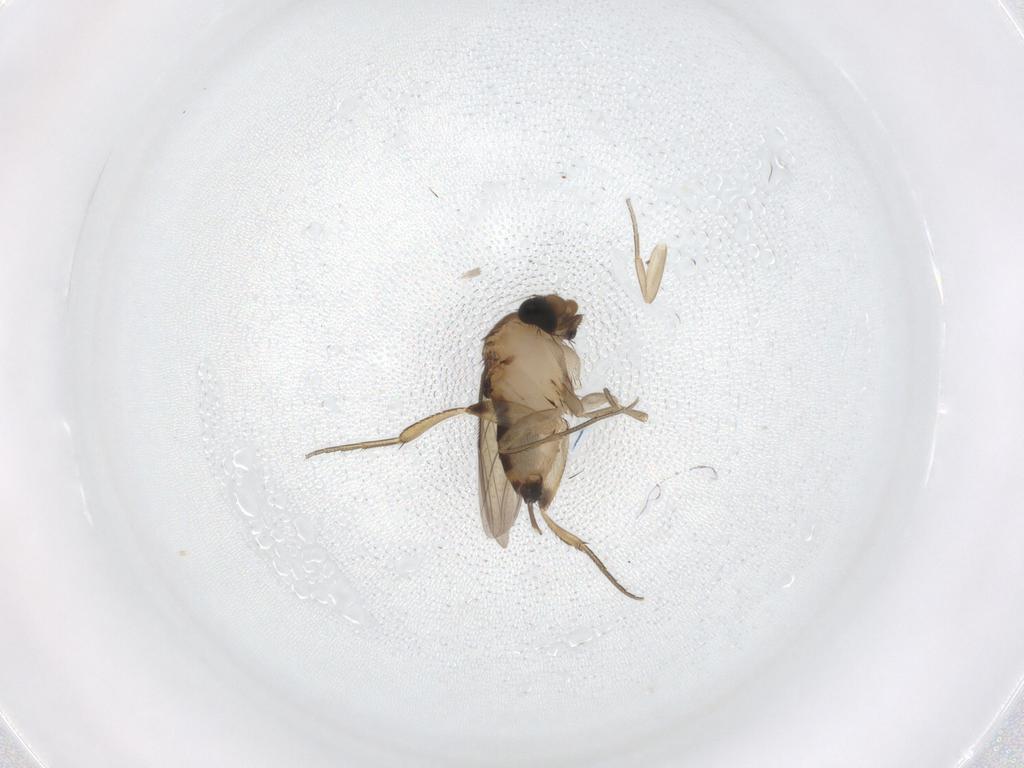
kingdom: Animalia
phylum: Arthropoda
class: Insecta
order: Diptera
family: Phoridae
